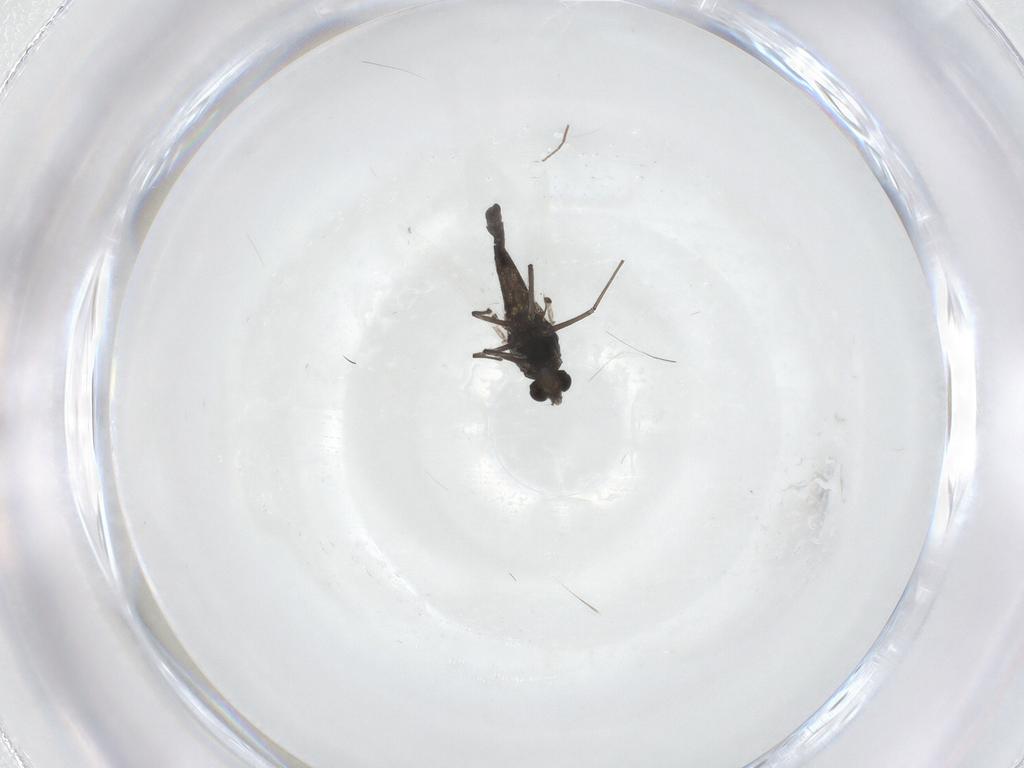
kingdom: Animalia
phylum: Arthropoda
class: Insecta
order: Diptera
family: Chironomidae
